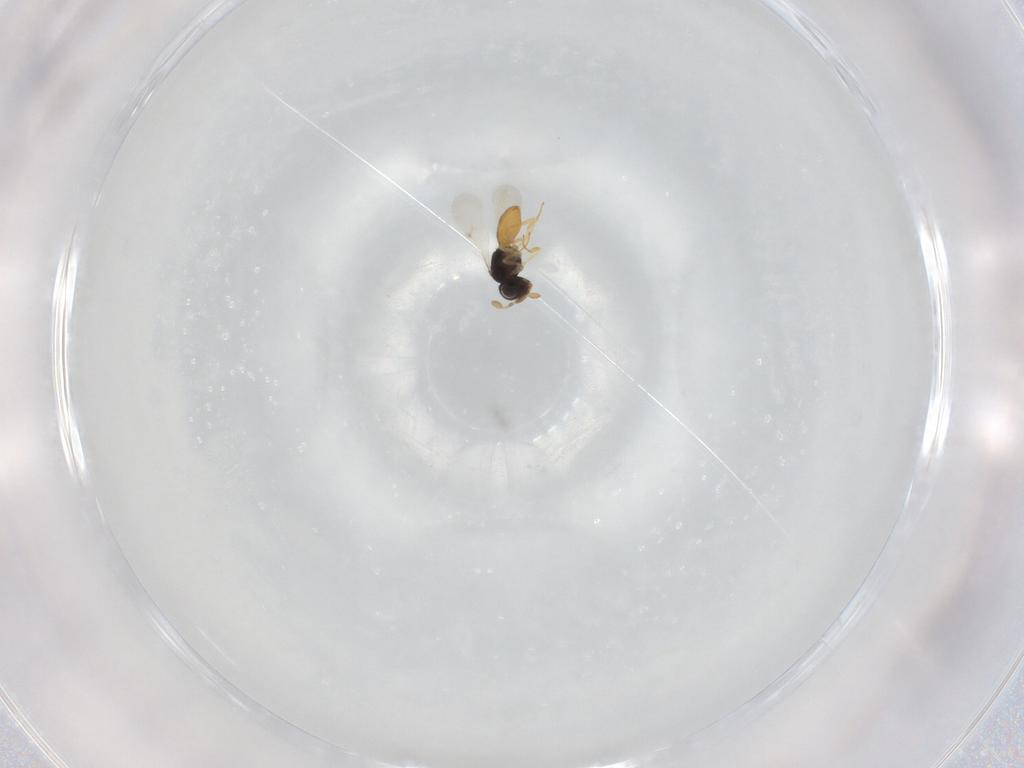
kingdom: Animalia
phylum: Arthropoda
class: Insecta
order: Hymenoptera
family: Scelionidae
